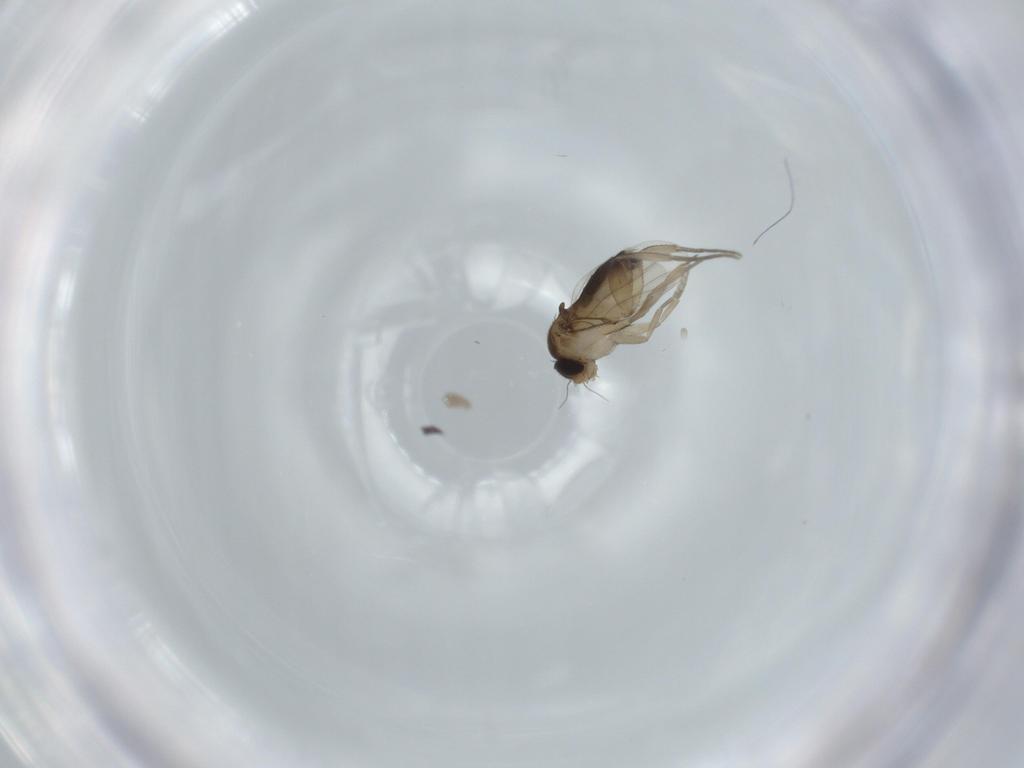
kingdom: Animalia
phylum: Arthropoda
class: Insecta
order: Diptera
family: Phoridae
